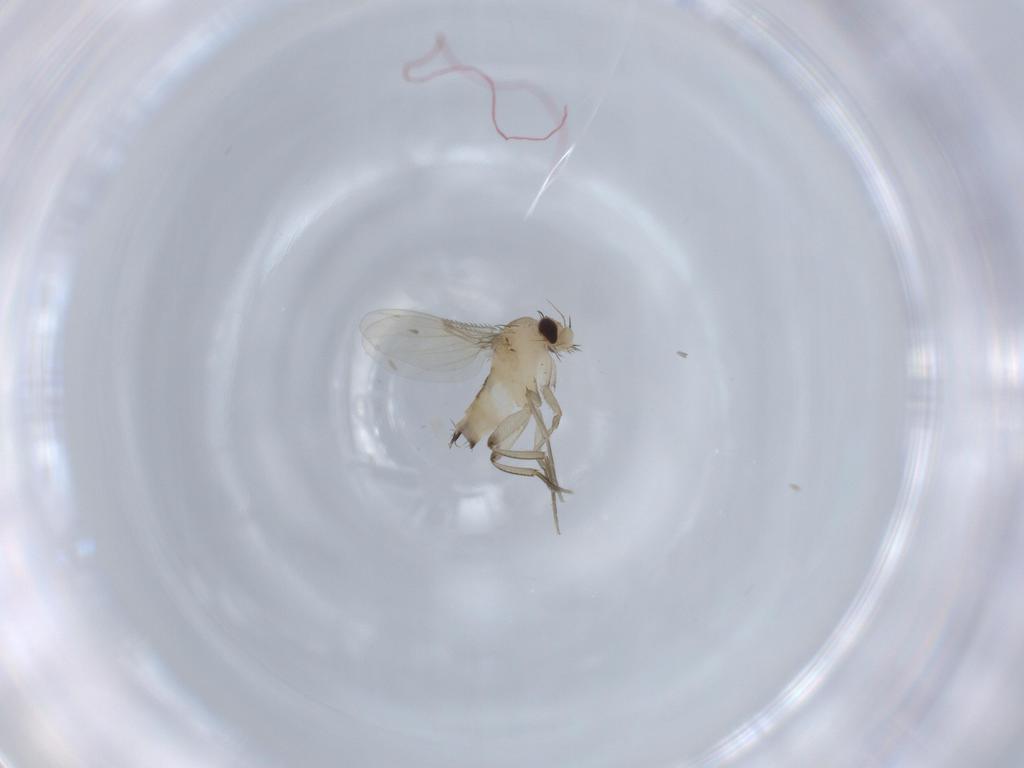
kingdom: Animalia
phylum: Arthropoda
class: Insecta
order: Diptera
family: Phoridae
